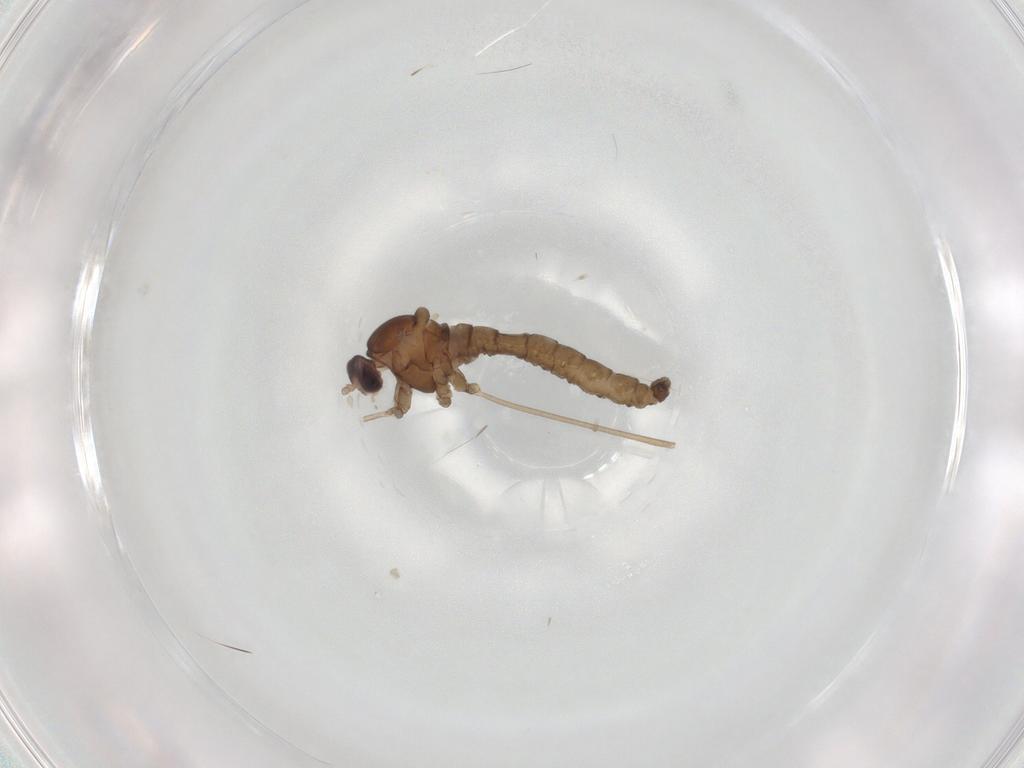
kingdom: Animalia
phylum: Arthropoda
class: Insecta
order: Diptera
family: Cecidomyiidae
